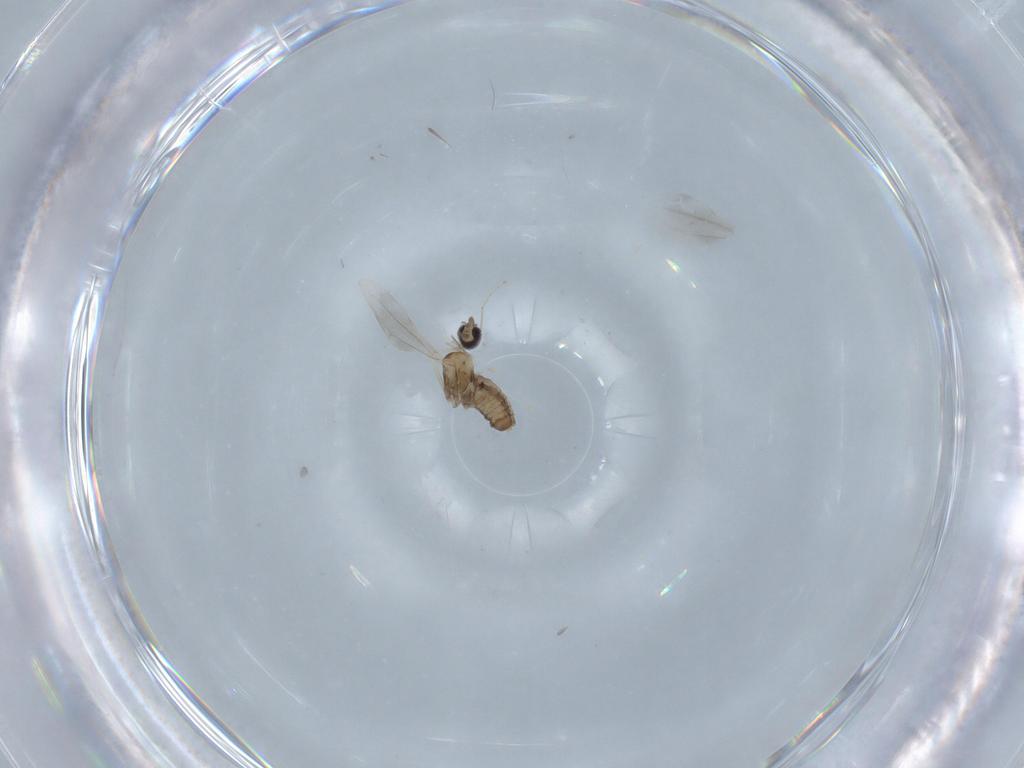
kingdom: Animalia
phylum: Arthropoda
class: Insecta
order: Diptera
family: Cecidomyiidae
